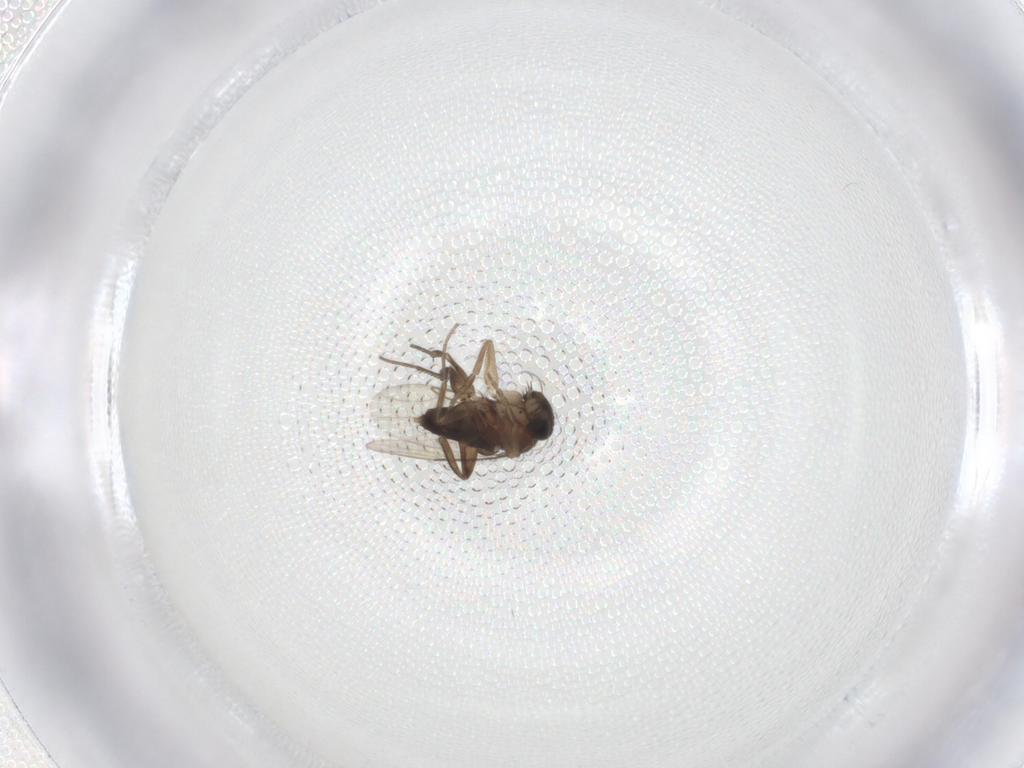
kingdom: Animalia
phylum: Arthropoda
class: Insecta
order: Diptera
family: Phoridae
